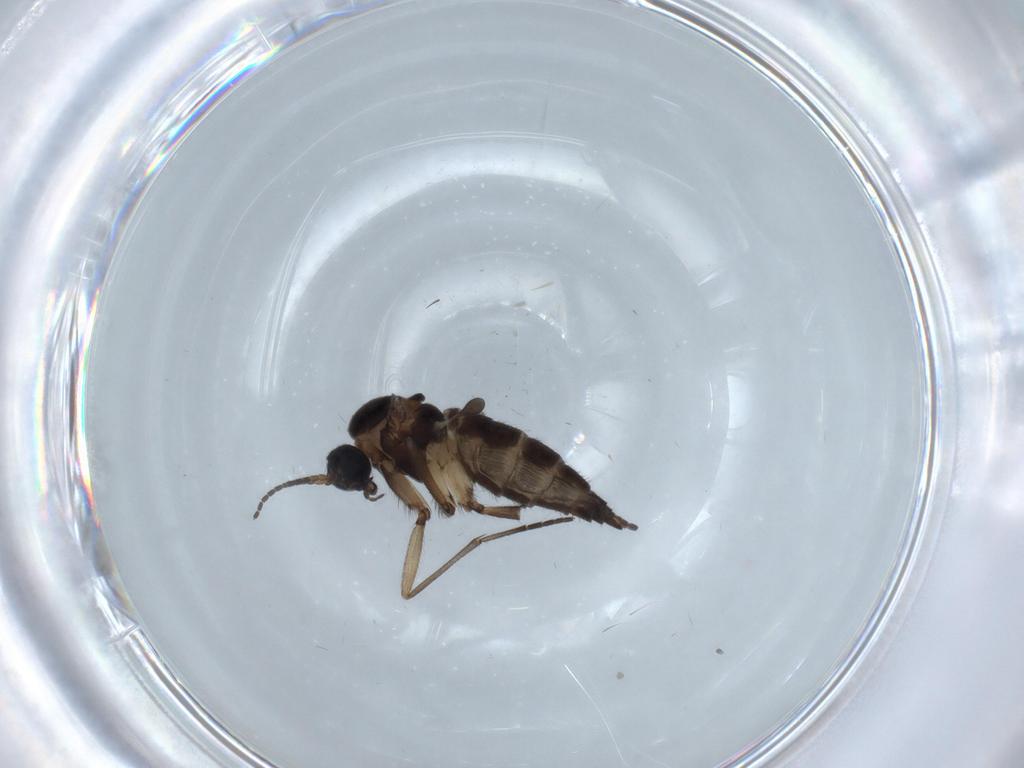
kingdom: Animalia
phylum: Arthropoda
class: Insecta
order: Diptera
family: Sciaridae
